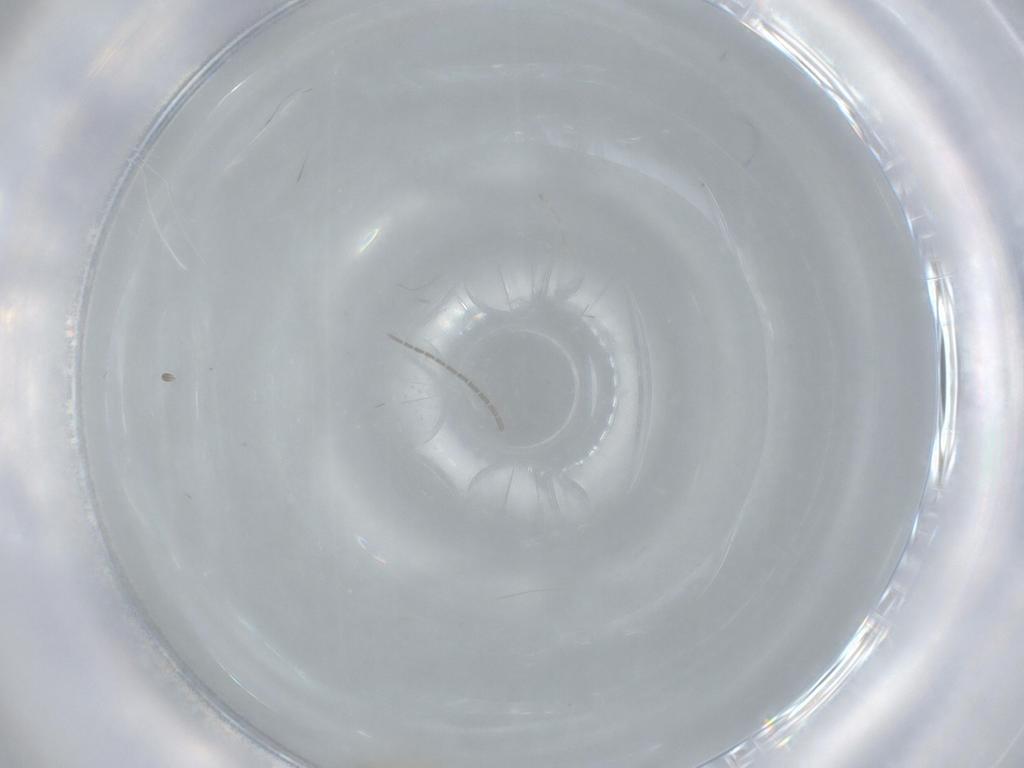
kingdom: Animalia
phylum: Arthropoda
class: Insecta
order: Diptera
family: Cecidomyiidae
